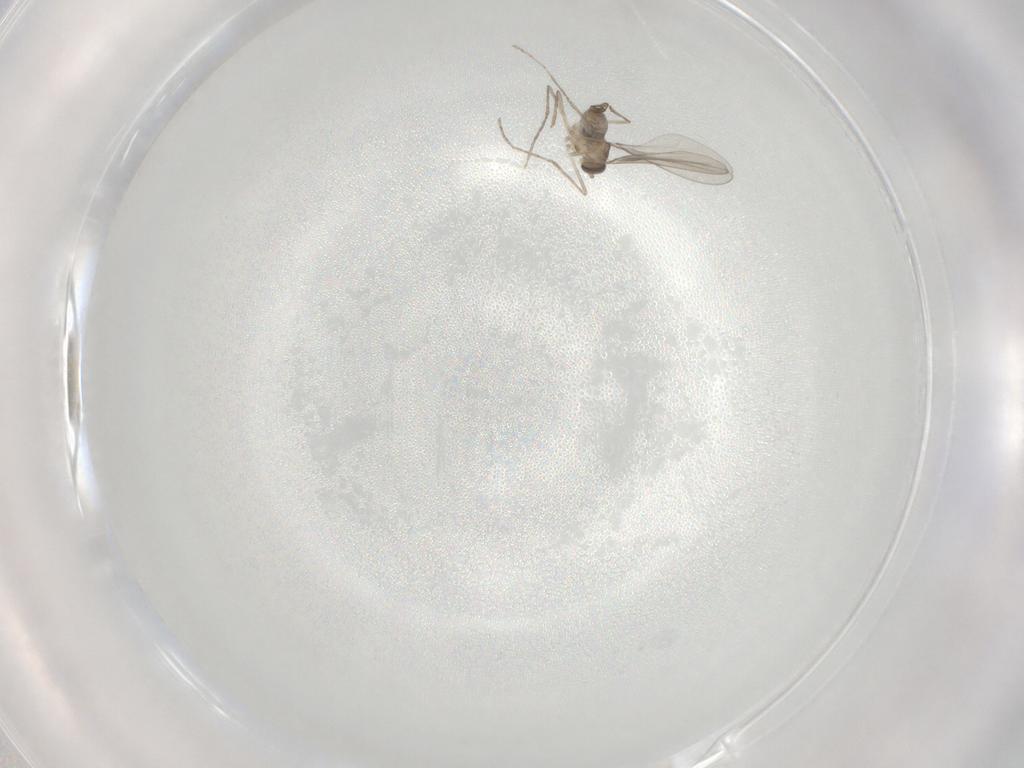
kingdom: Animalia
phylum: Arthropoda
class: Insecta
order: Diptera
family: Cecidomyiidae
